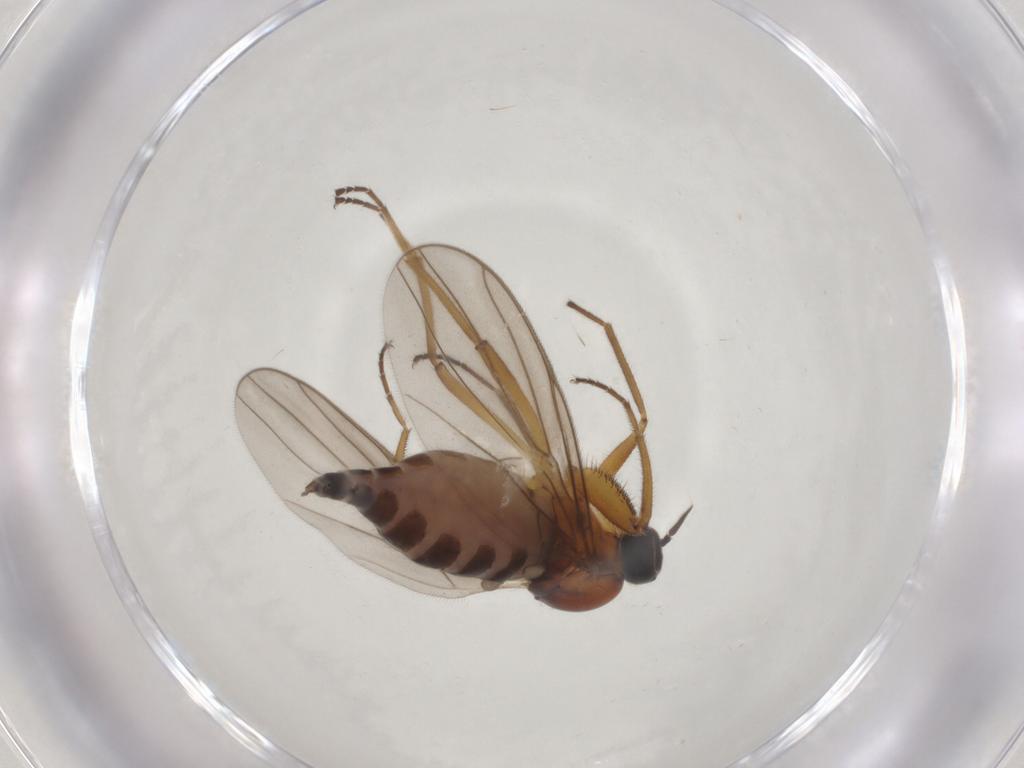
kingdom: Animalia
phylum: Arthropoda
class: Insecta
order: Diptera
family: Hybotidae
